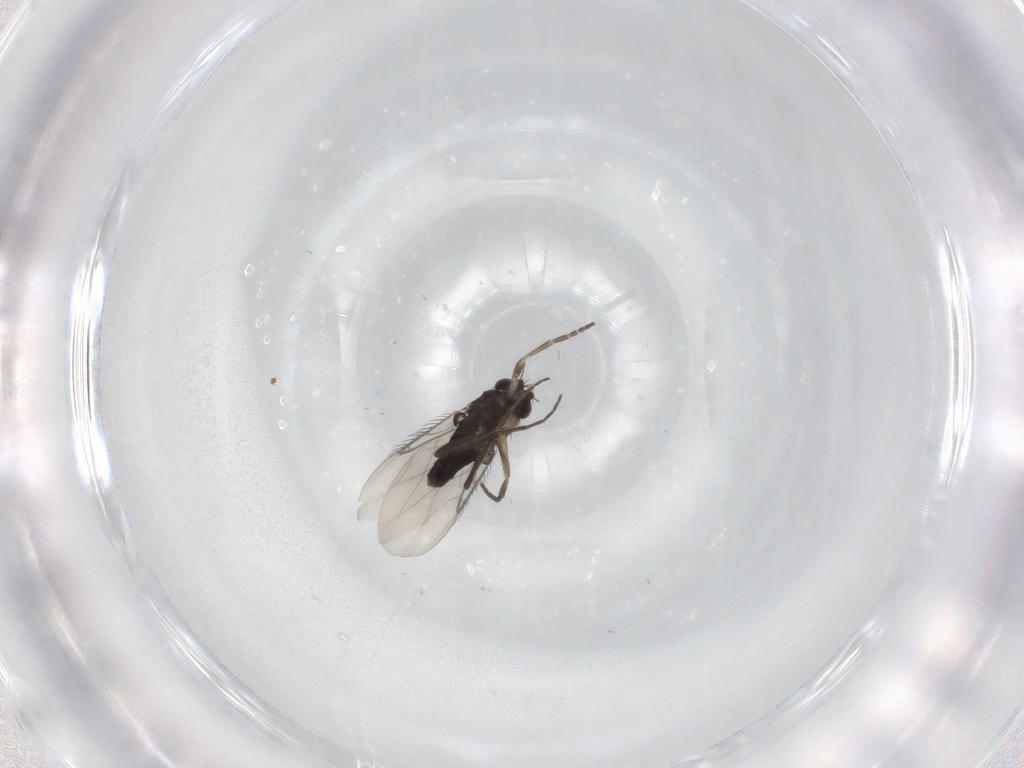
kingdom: Animalia
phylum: Arthropoda
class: Insecta
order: Diptera
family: Phoridae
